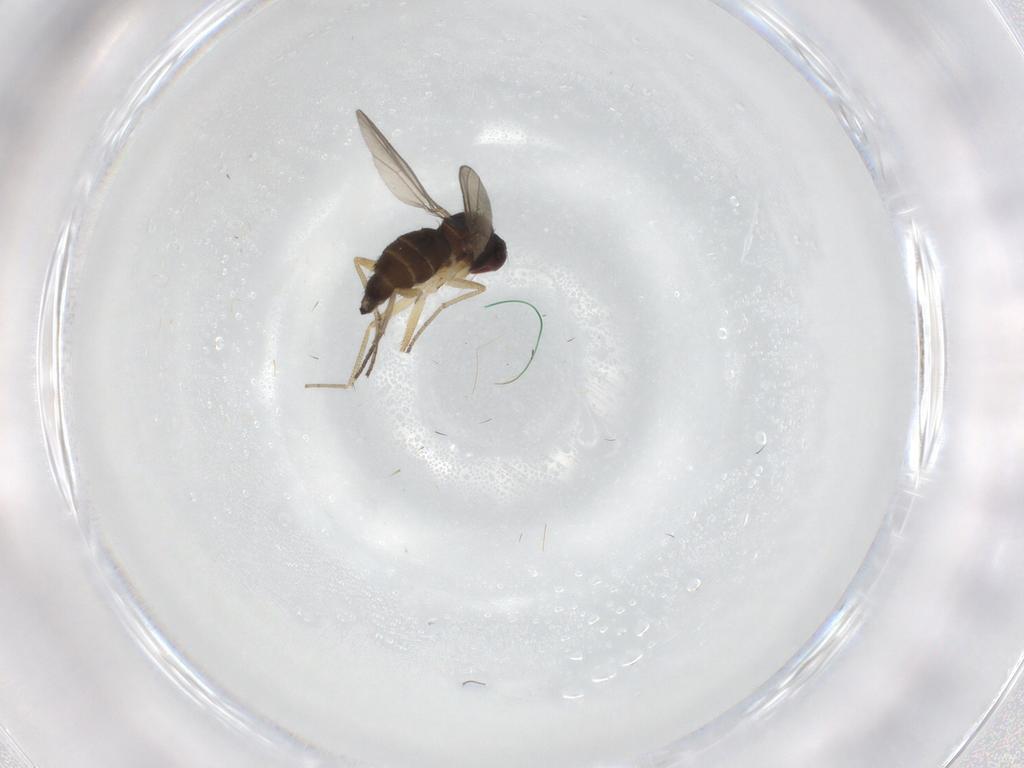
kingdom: Animalia
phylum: Arthropoda
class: Insecta
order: Diptera
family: Dolichopodidae
